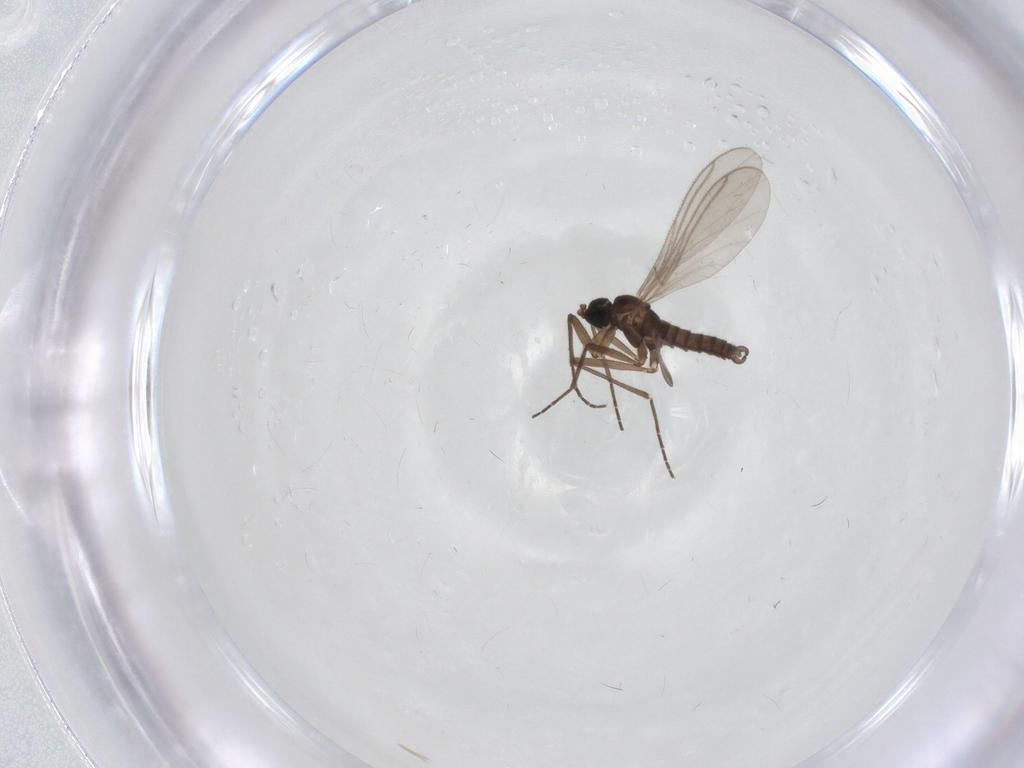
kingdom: Animalia
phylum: Arthropoda
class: Insecta
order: Diptera
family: Sciaridae
